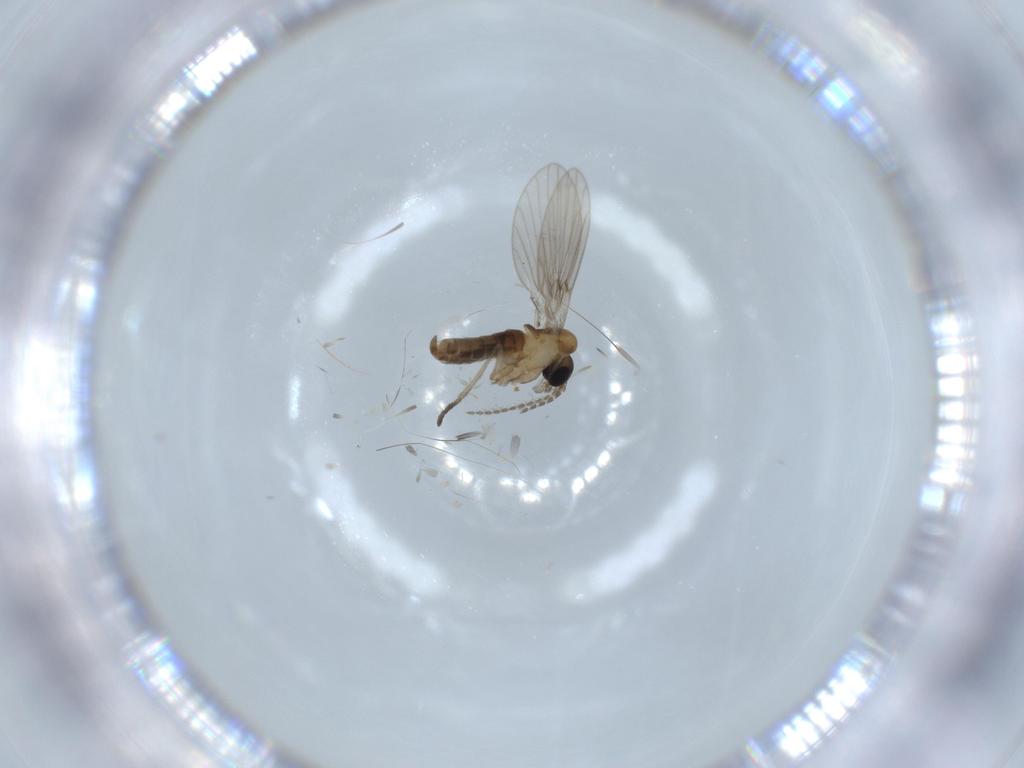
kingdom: Animalia
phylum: Arthropoda
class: Insecta
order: Diptera
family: Psychodidae
